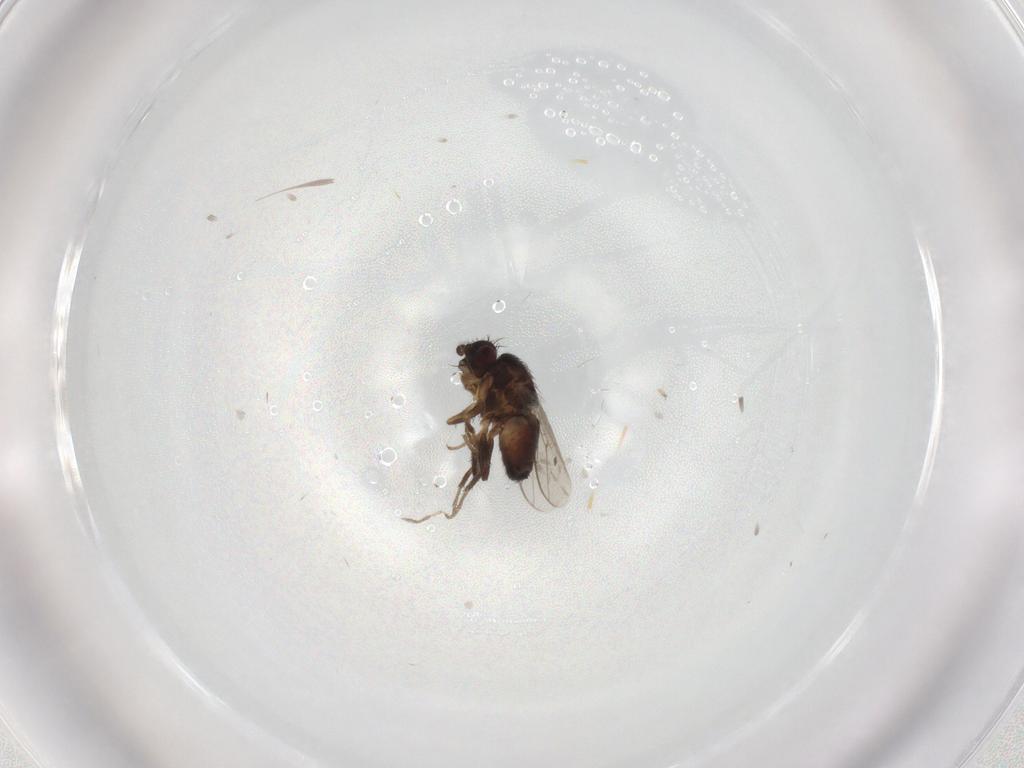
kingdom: Animalia
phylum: Arthropoda
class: Insecta
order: Diptera
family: Sphaeroceridae
